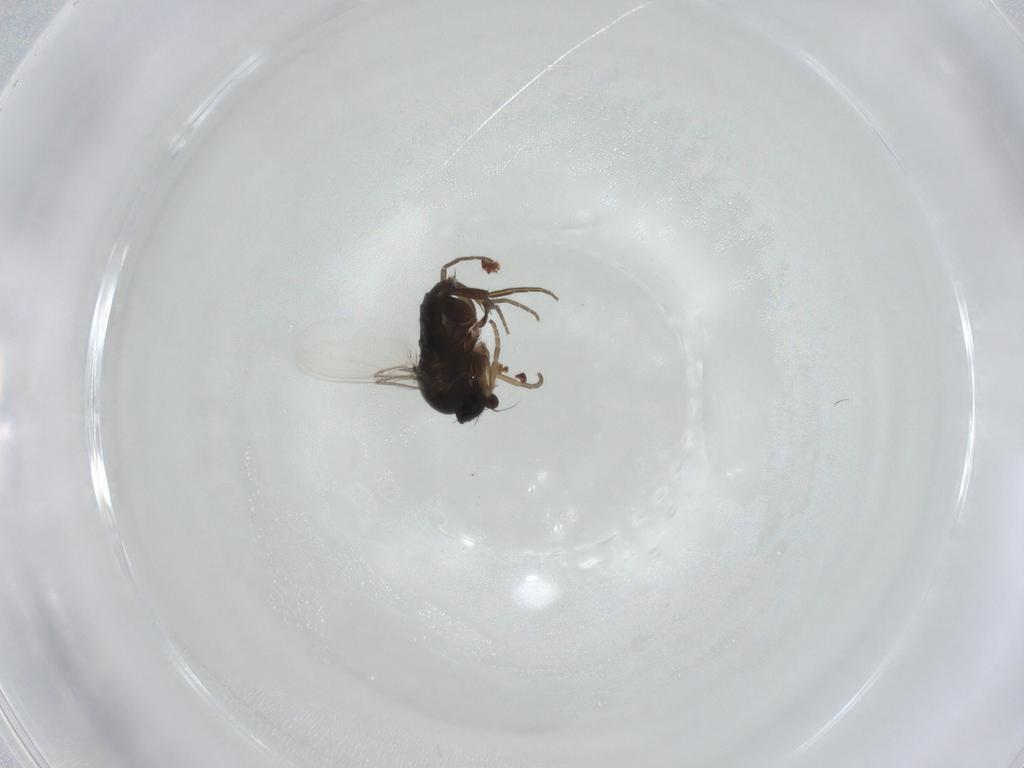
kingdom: Animalia
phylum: Arthropoda
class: Insecta
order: Diptera
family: Phoridae
